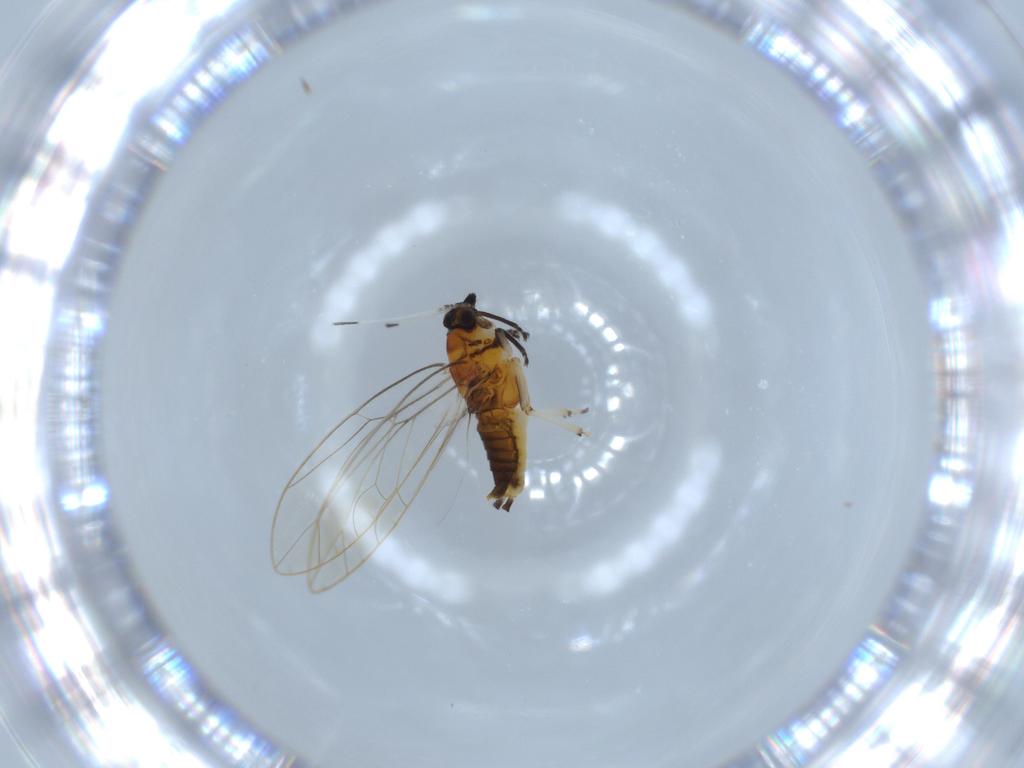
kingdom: Animalia
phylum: Arthropoda
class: Insecta
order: Hemiptera
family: Triozidae
